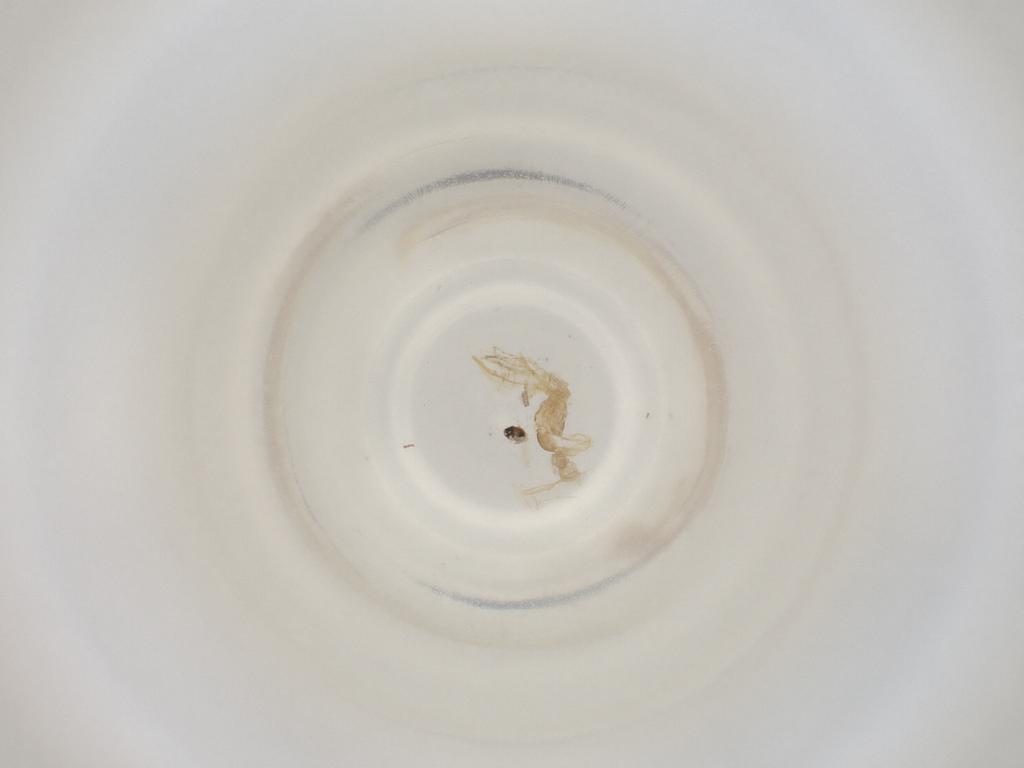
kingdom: Animalia
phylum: Arthropoda
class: Insecta
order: Diptera
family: Cecidomyiidae
